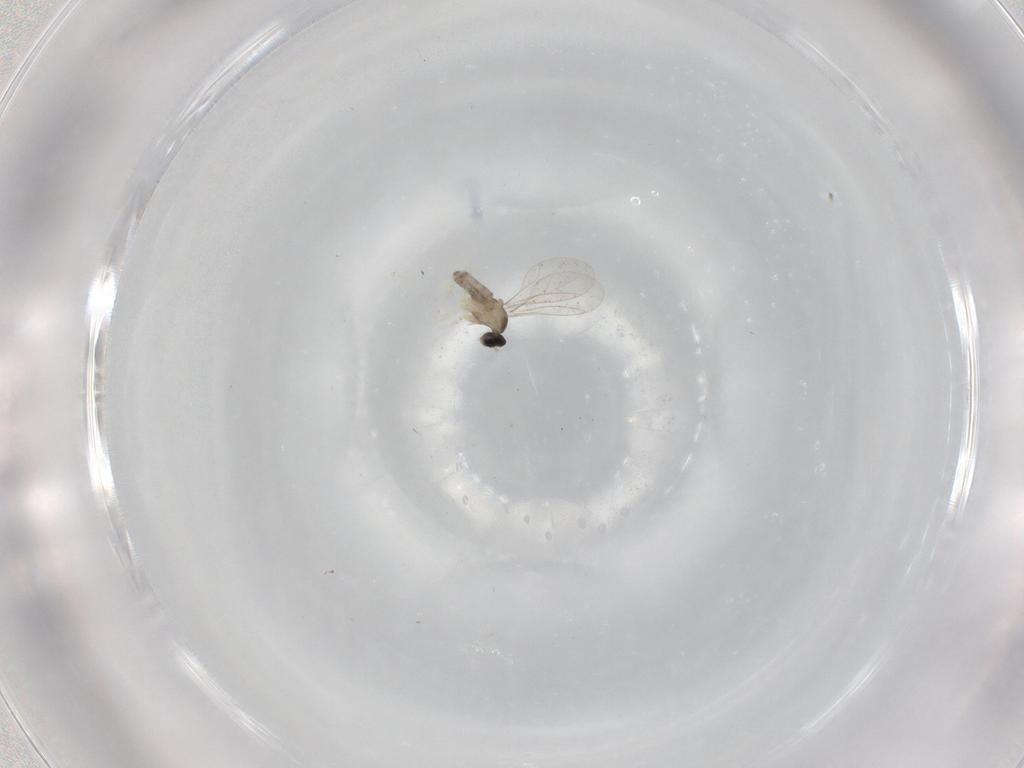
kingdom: Animalia
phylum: Arthropoda
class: Insecta
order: Diptera
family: Cecidomyiidae
